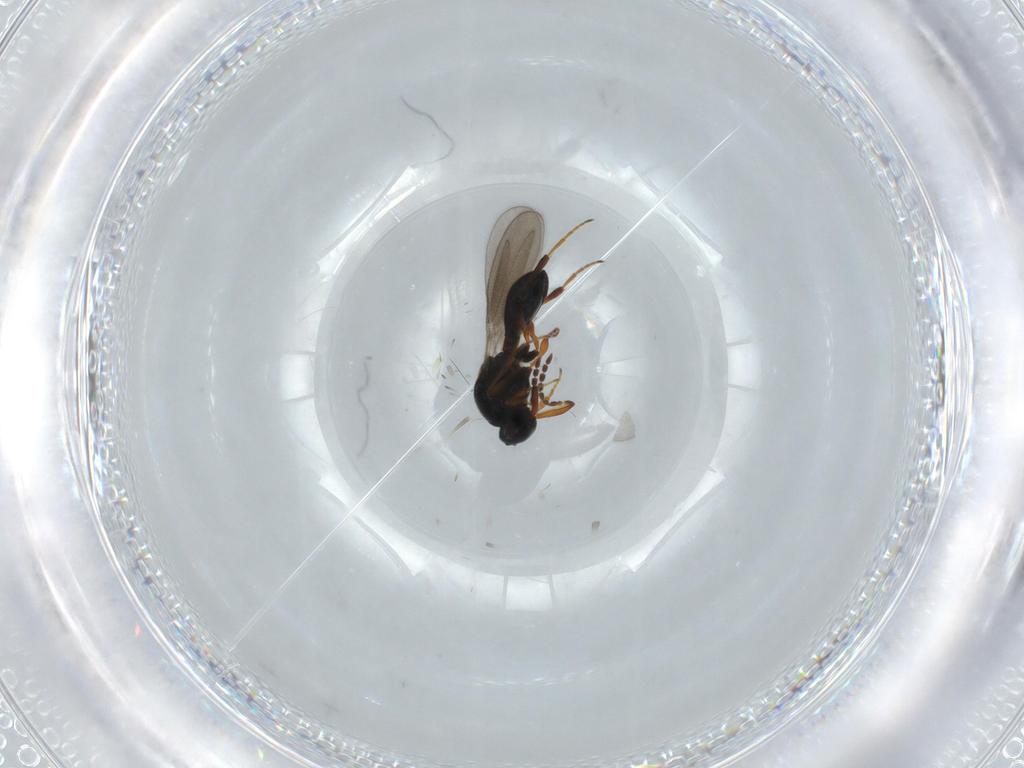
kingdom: Animalia
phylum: Arthropoda
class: Insecta
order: Hymenoptera
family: Platygastridae
